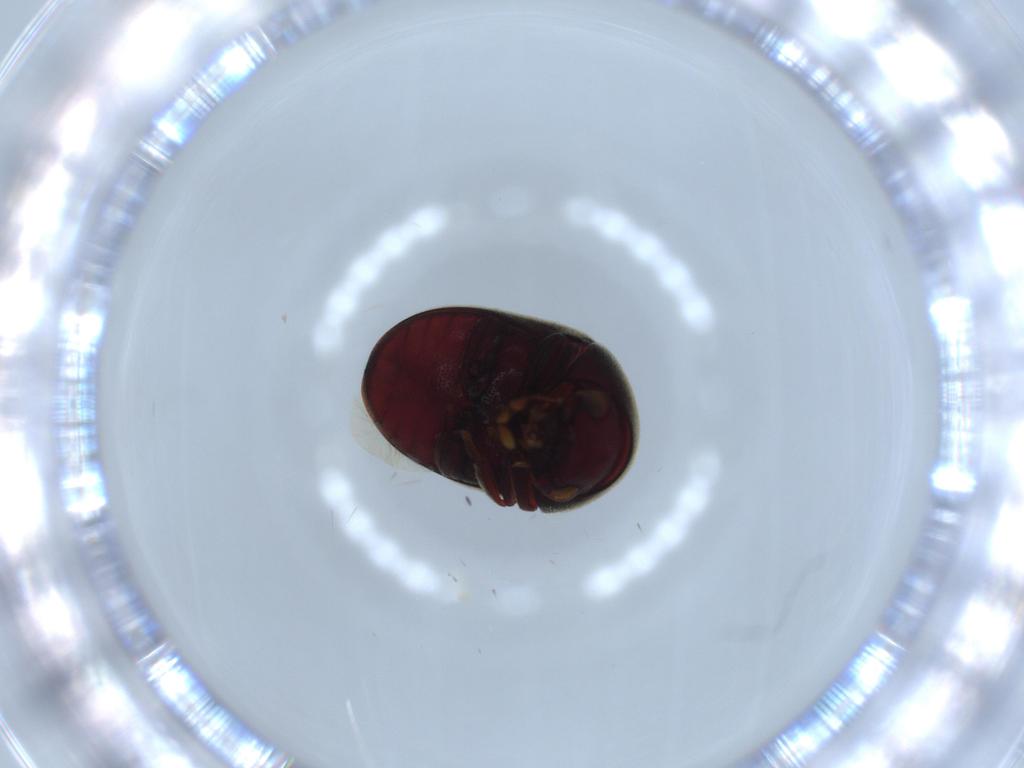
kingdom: Animalia
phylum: Arthropoda
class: Insecta
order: Coleoptera
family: Ptinidae
